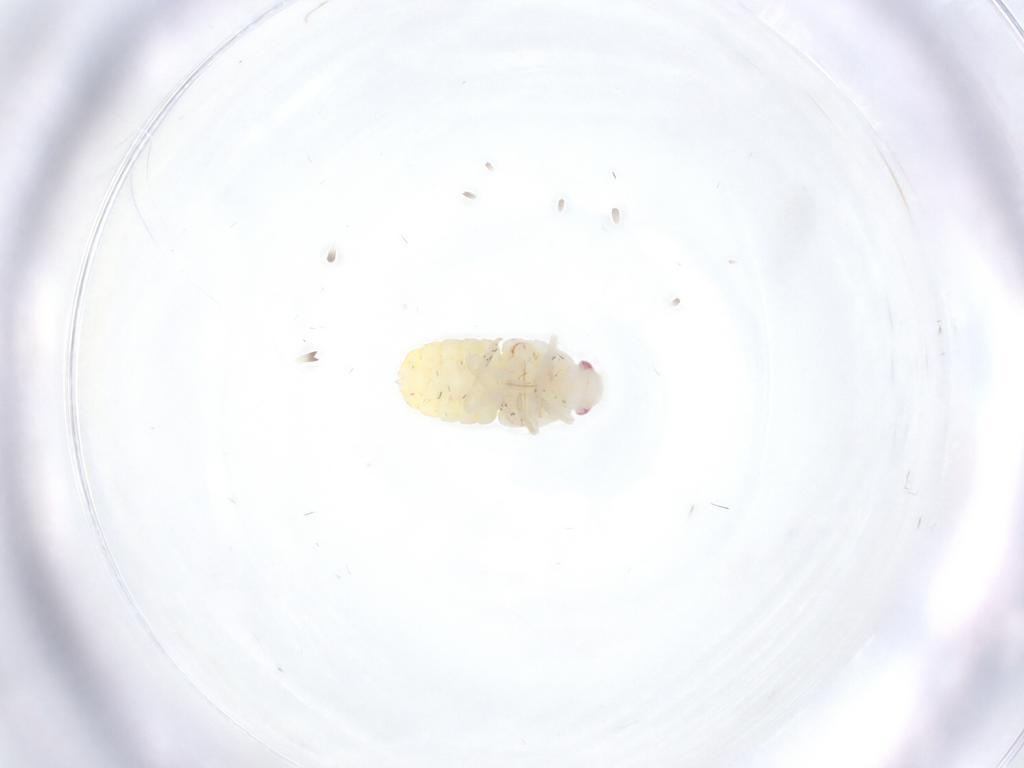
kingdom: Animalia
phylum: Arthropoda
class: Insecta
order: Hemiptera
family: Fulgoroidea_incertae_sedis
